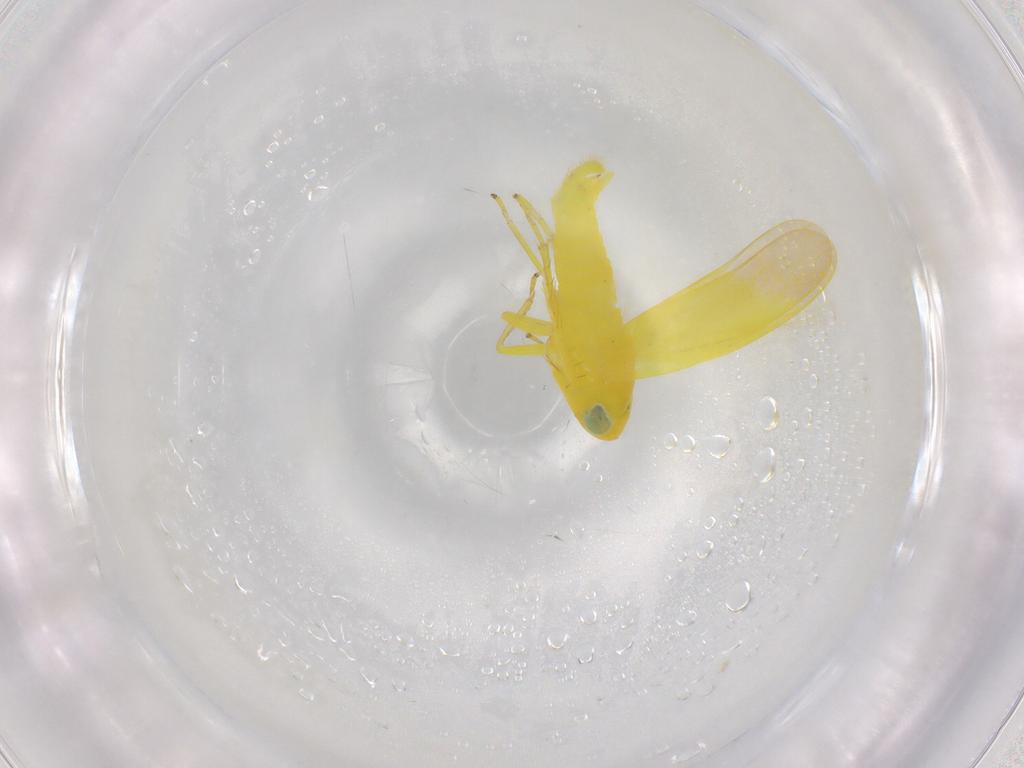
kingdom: Animalia
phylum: Arthropoda
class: Insecta
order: Hemiptera
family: Cicadellidae
